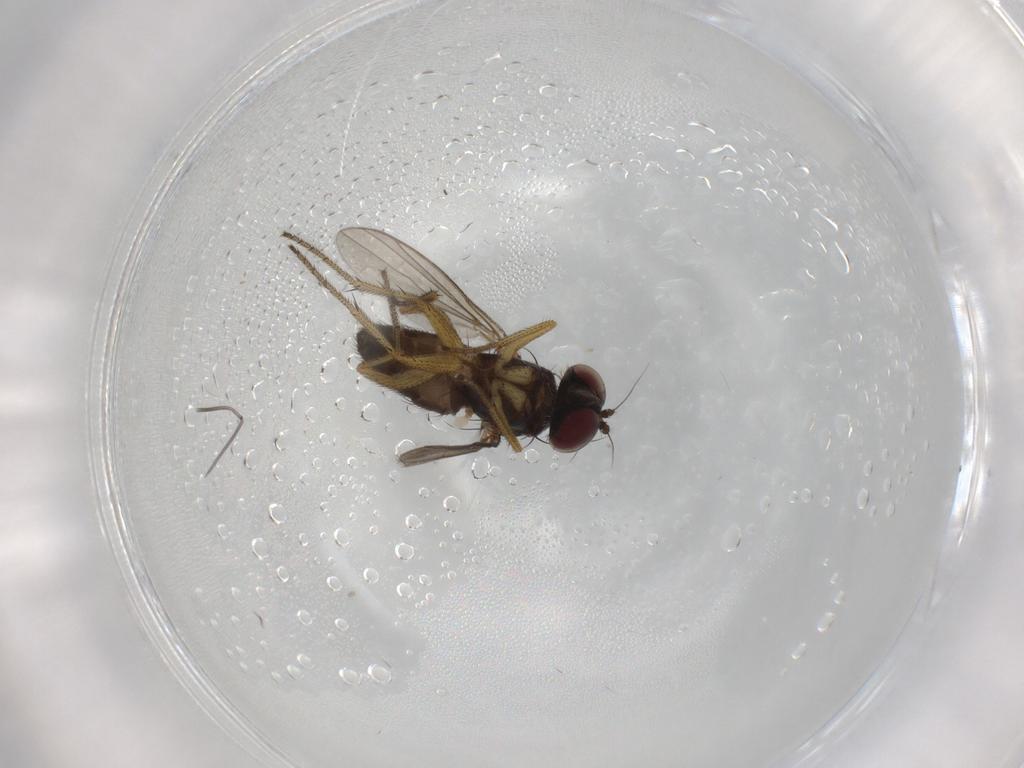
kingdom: Animalia
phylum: Arthropoda
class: Insecta
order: Diptera
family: Dolichopodidae
